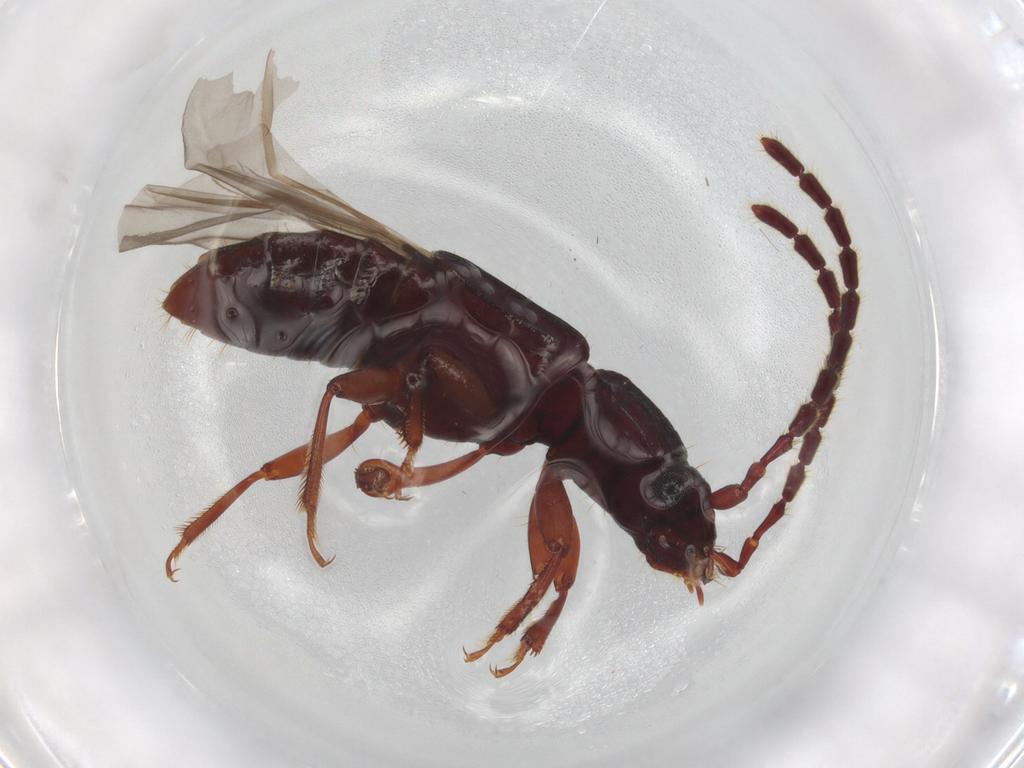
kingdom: Animalia
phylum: Arthropoda
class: Insecta
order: Coleoptera
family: Staphylinidae
